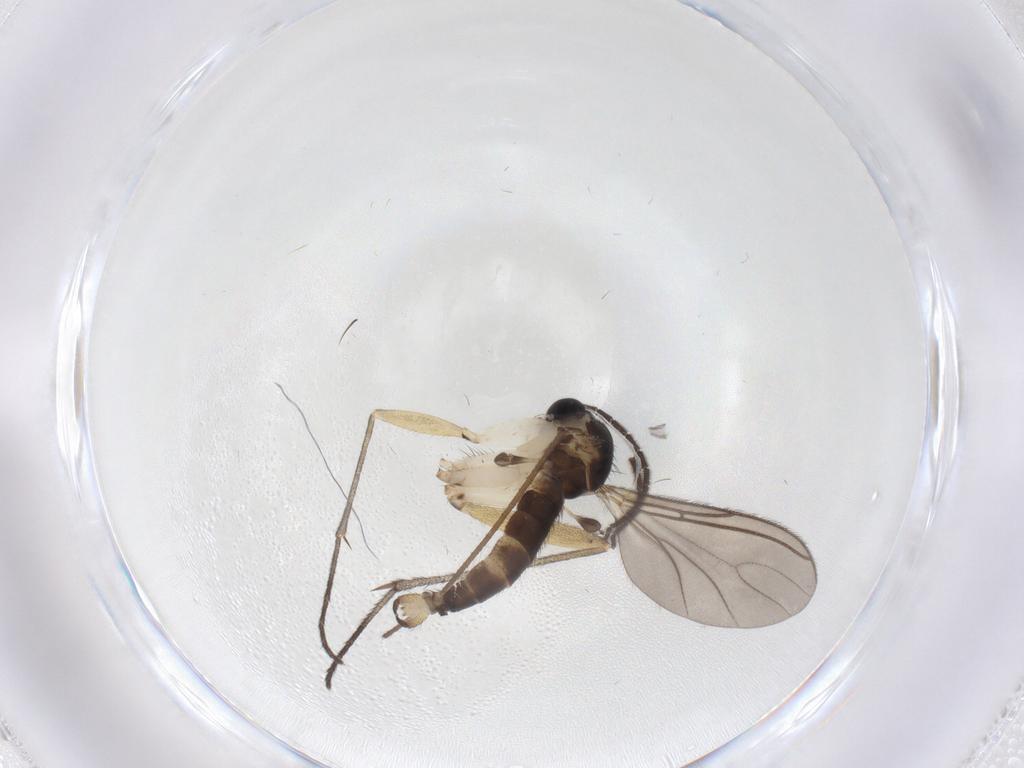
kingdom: Animalia
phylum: Arthropoda
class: Insecta
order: Diptera
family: Sciaridae
